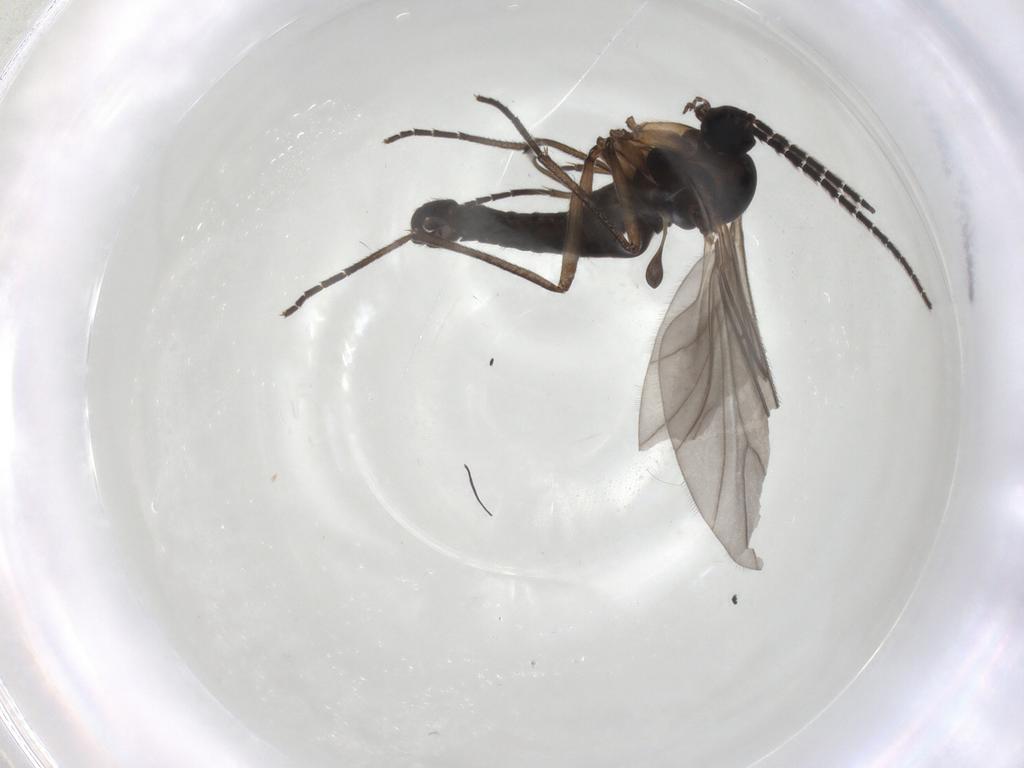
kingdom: Animalia
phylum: Arthropoda
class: Insecta
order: Diptera
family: Sciaridae
